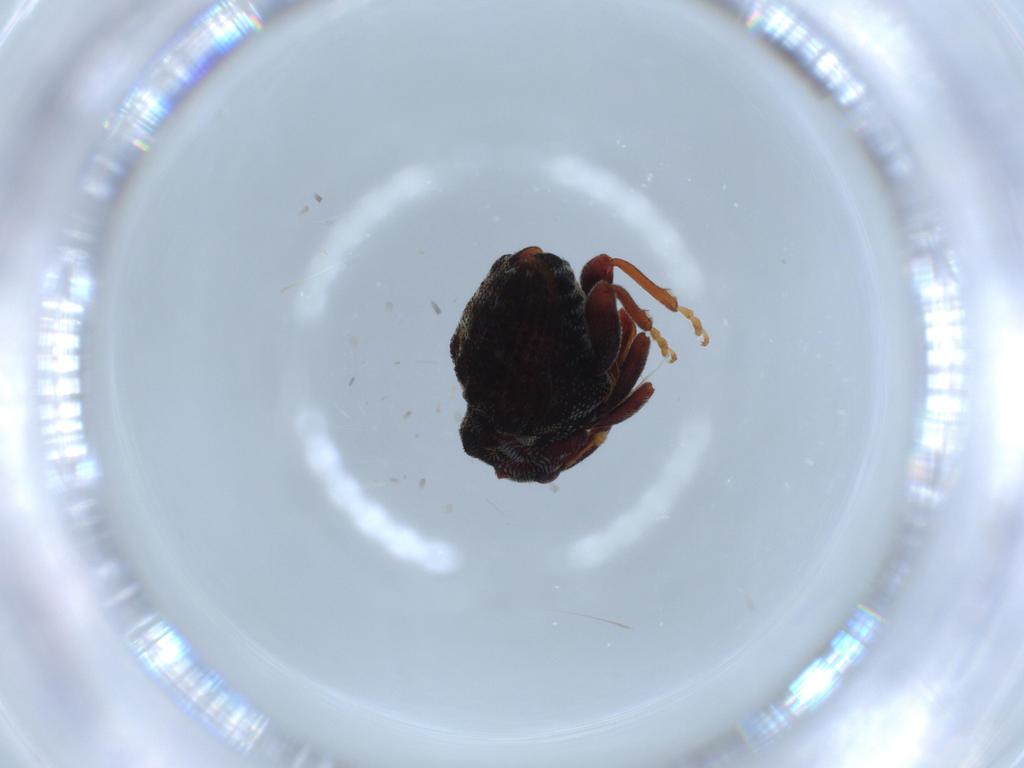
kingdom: Animalia
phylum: Arthropoda
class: Insecta
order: Coleoptera
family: Curculionidae
